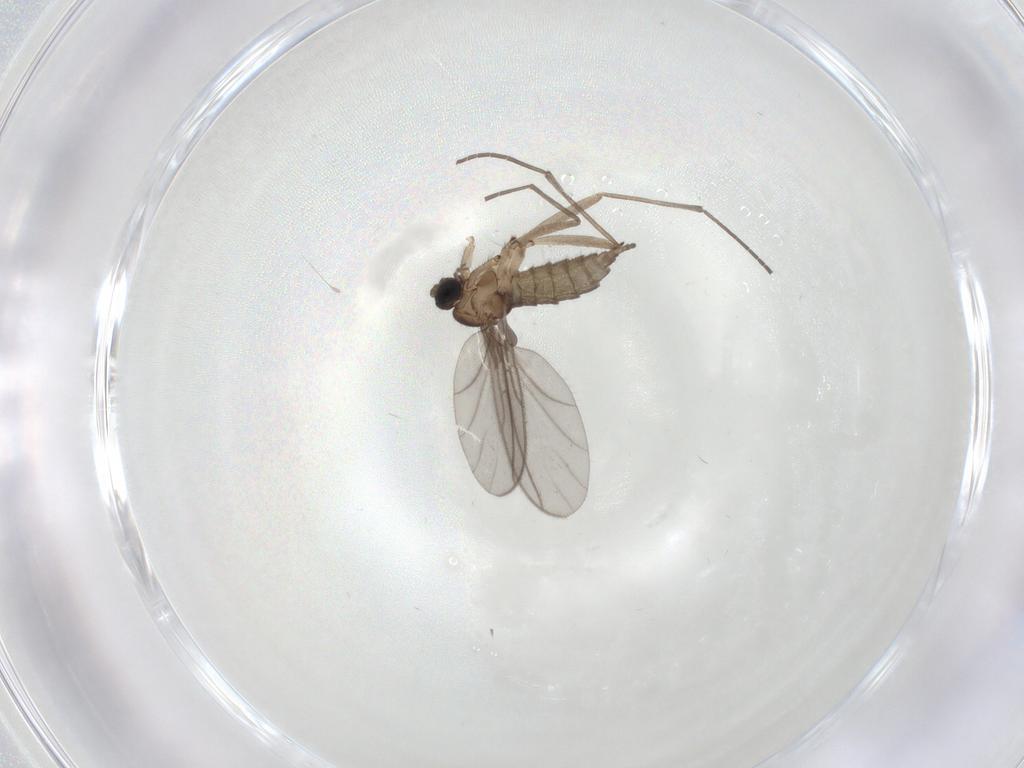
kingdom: Animalia
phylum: Arthropoda
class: Insecta
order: Diptera
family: Sciaridae
